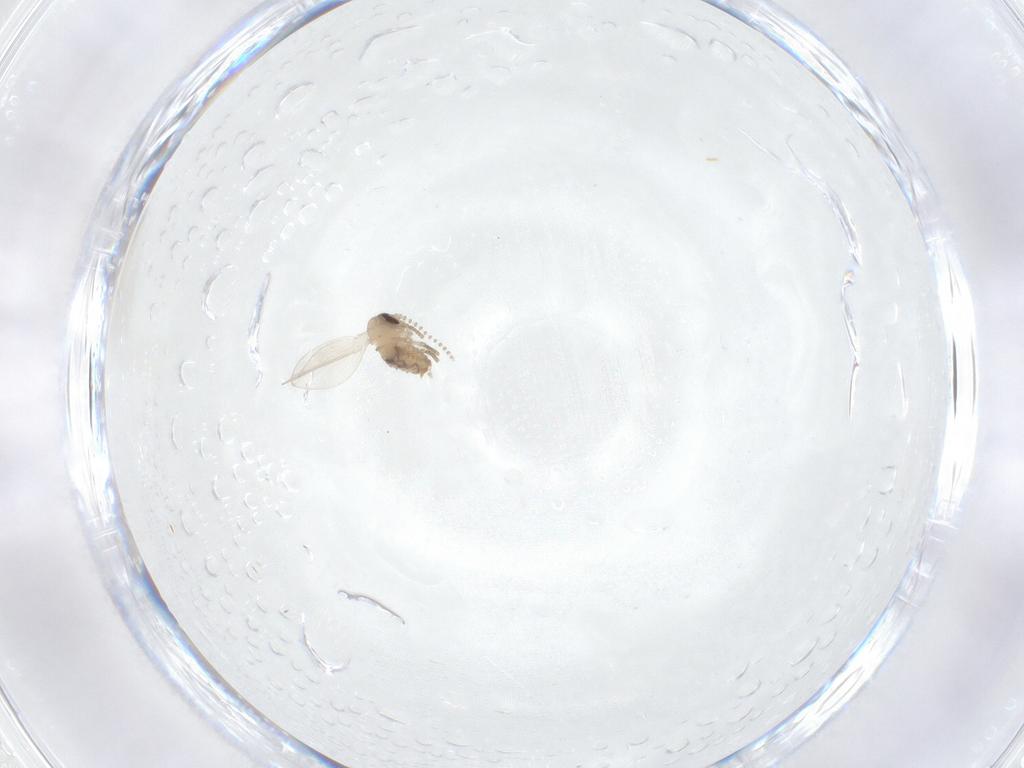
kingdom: Animalia
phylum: Arthropoda
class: Insecta
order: Diptera
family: Psychodidae
